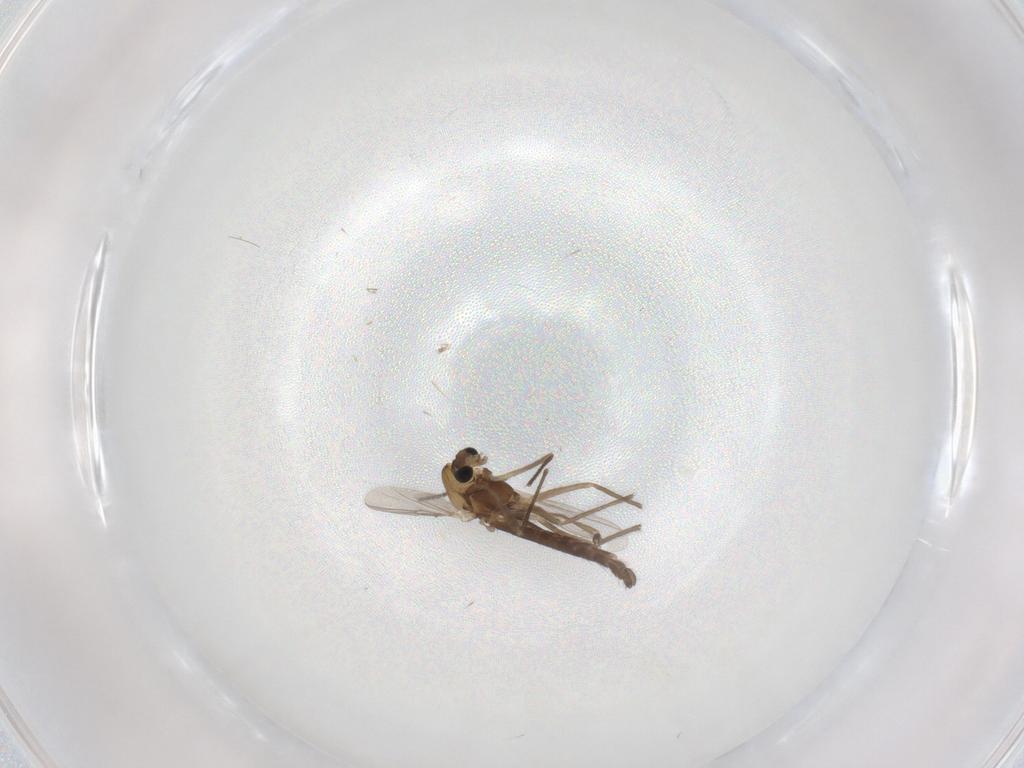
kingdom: Animalia
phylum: Arthropoda
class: Insecta
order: Diptera
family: Chironomidae
